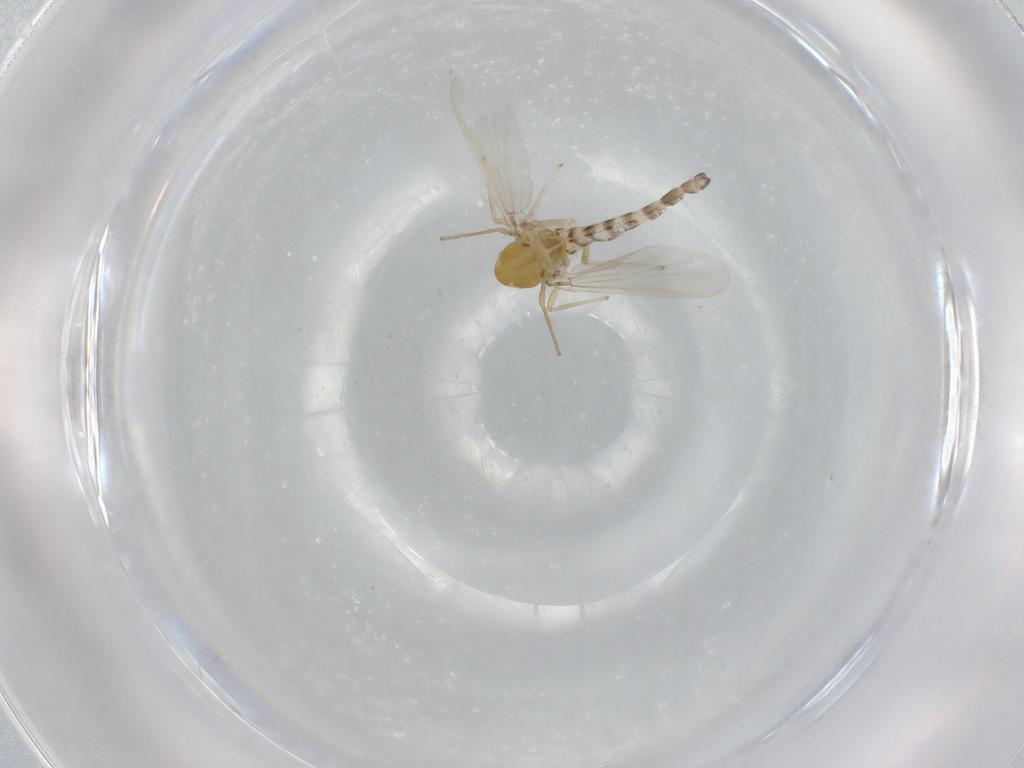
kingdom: Animalia
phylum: Arthropoda
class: Insecta
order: Diptera
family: Chironomidae
